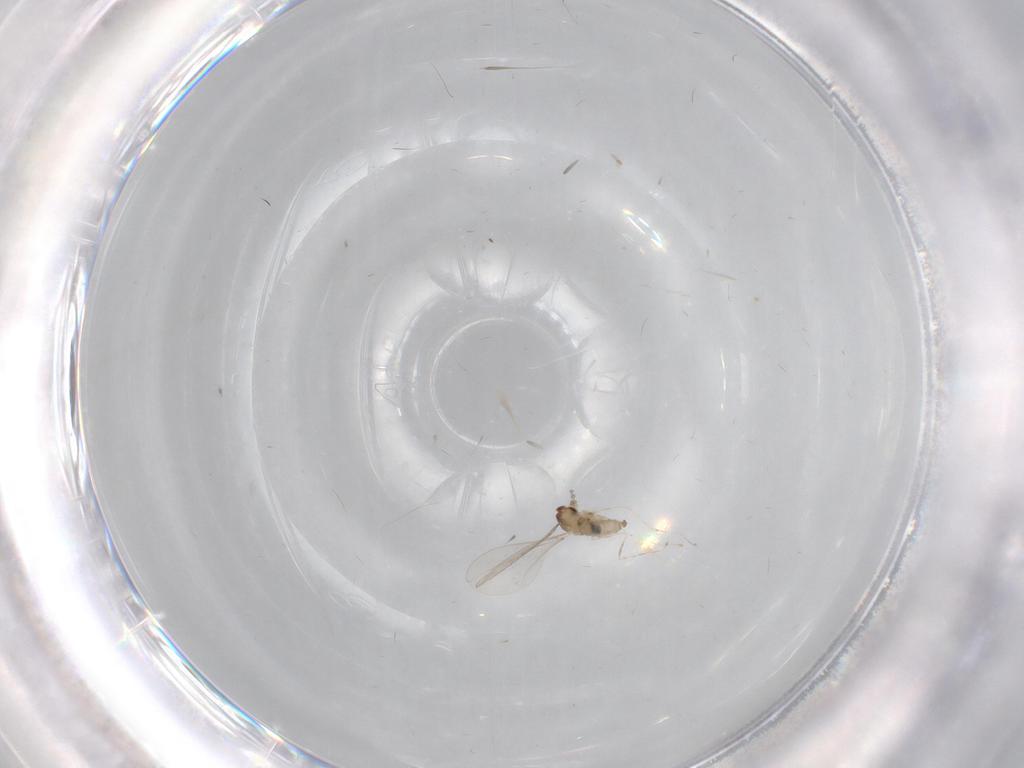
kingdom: Animalia
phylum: Arthropoda
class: Insecta
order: Diptera
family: Cecidomyiidae
